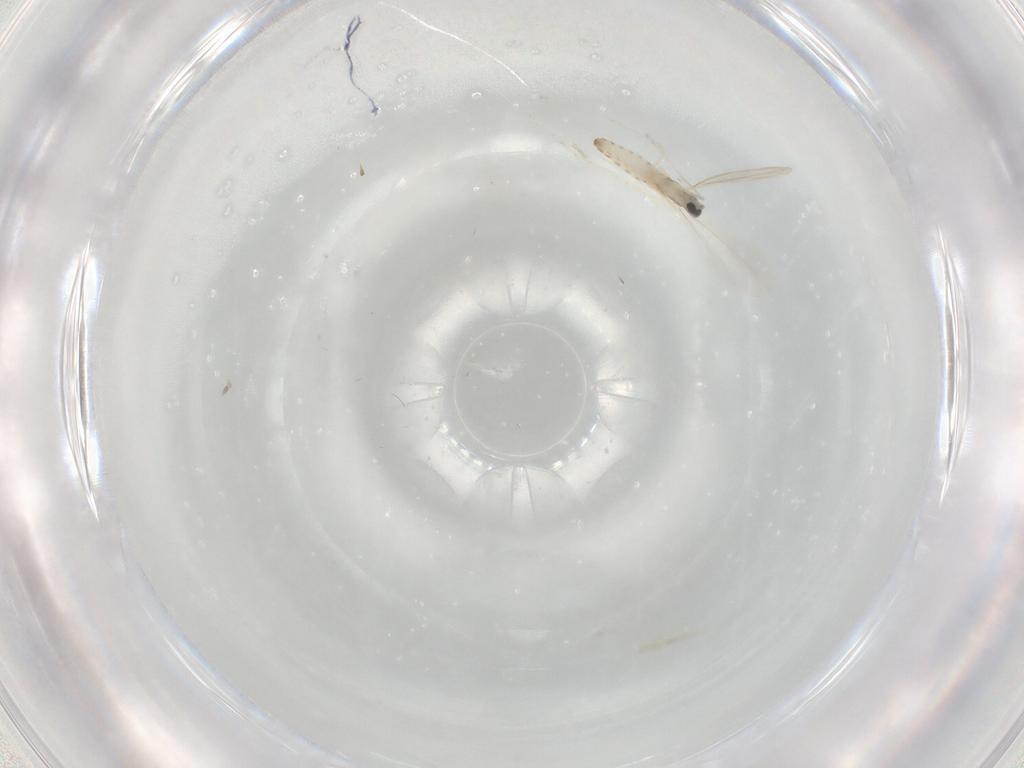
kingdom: Animalia
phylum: Arthropoda
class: Insecta
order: Diptera
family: Cecidomyiidae
